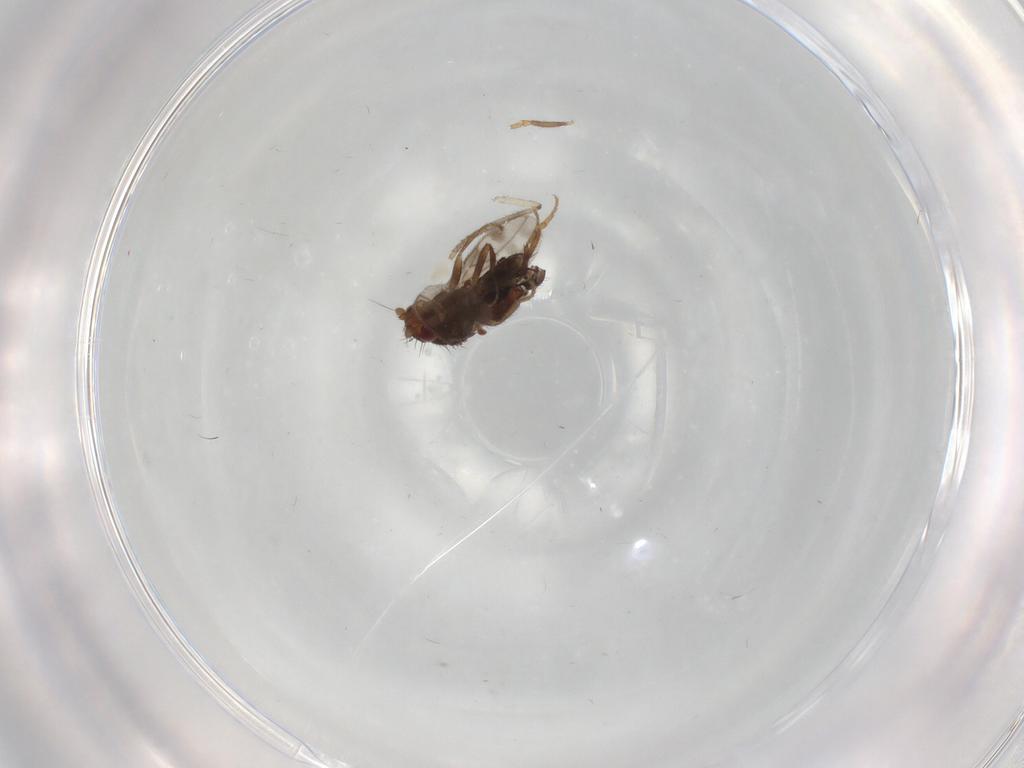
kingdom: Animalia
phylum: Arthropoda
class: Insecta
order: Diptera
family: Sphaeroceridae
